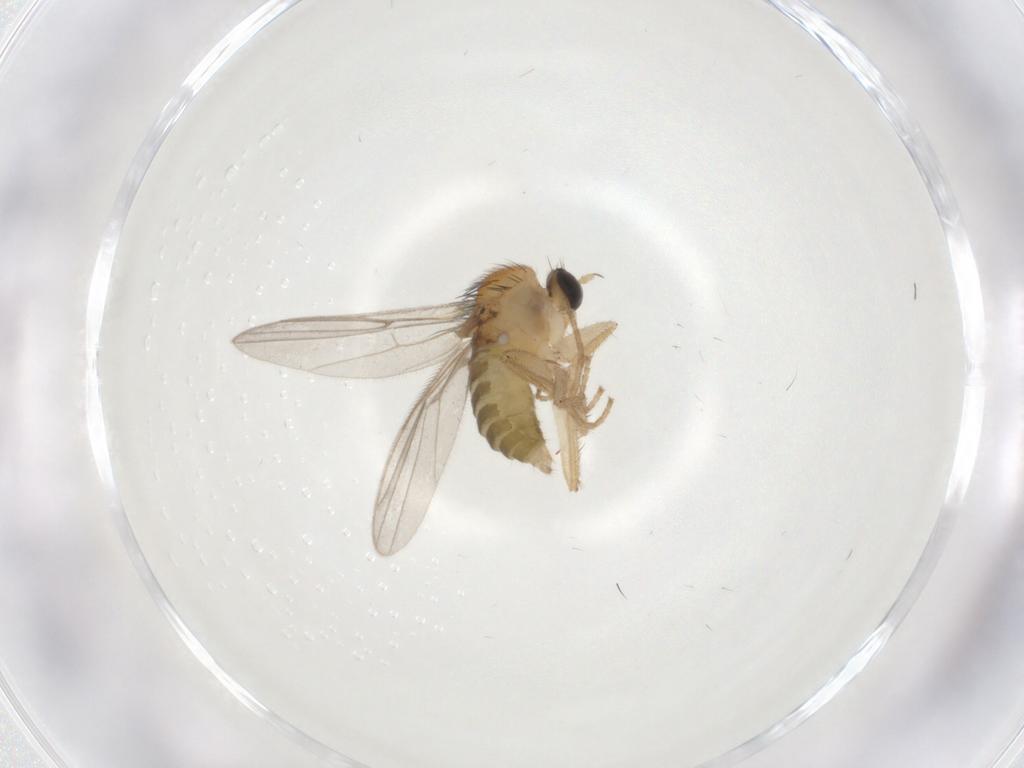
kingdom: Animalia
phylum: Arthropoda
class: Insecta
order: Diptera
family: Hybotidae
